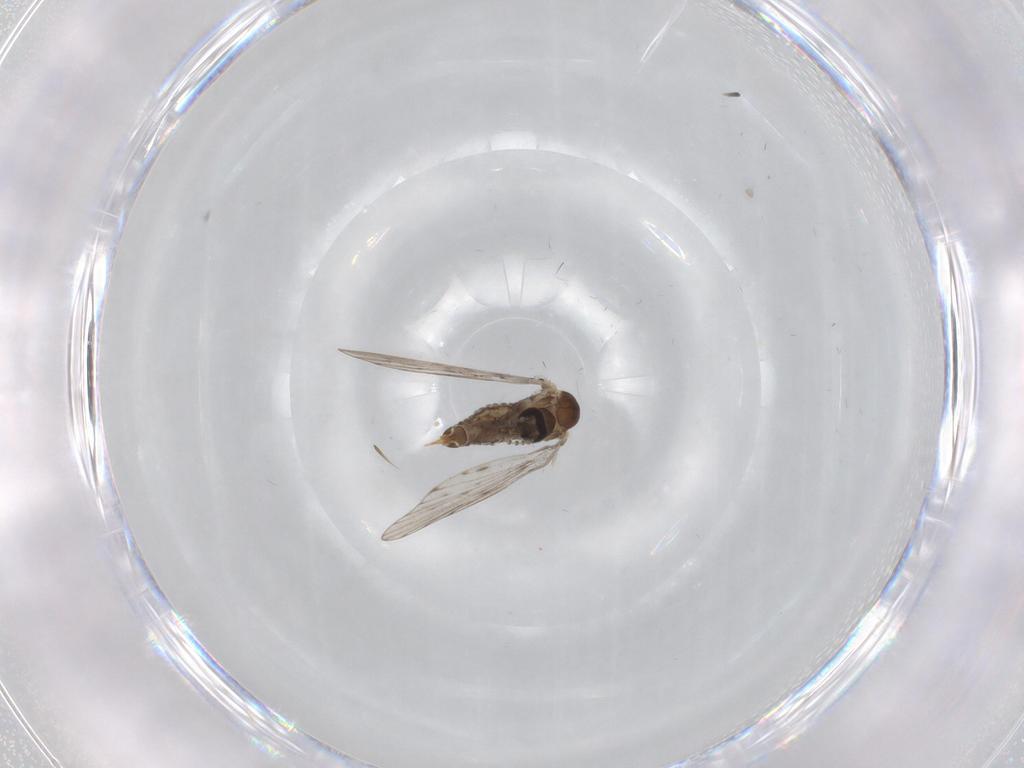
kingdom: Animalia
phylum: Arthropoda
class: Insecta
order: Diptera
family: Psychodidae
